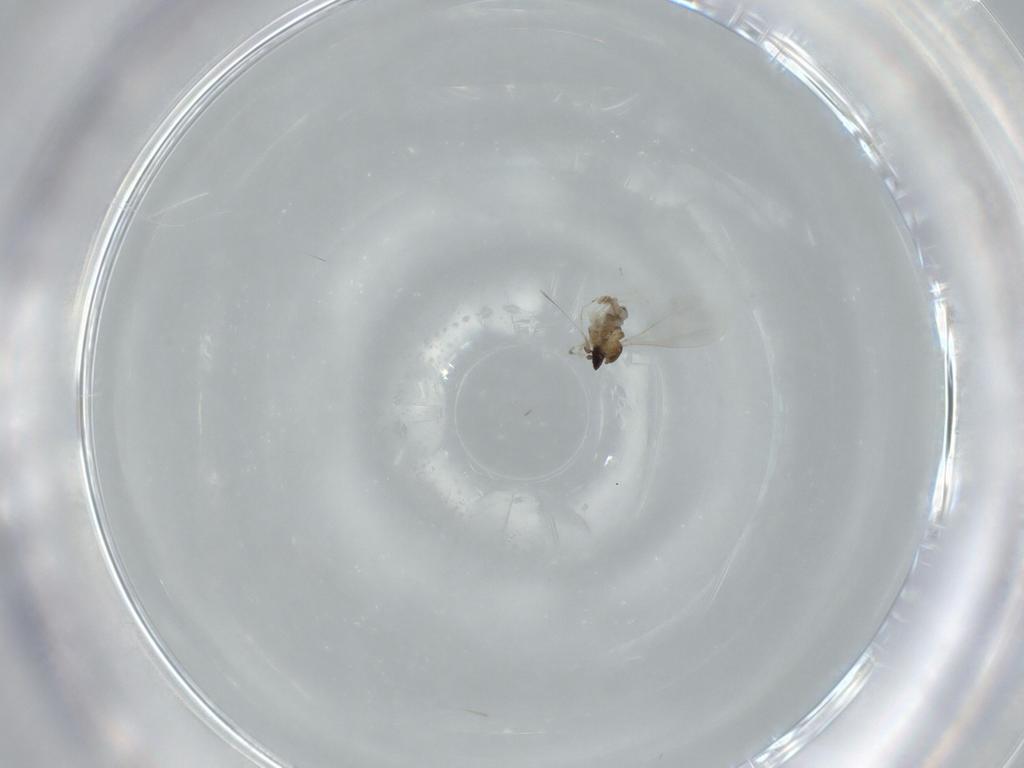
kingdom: Animalia
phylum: Arthropoda
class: Insecta
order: Diptera
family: Cecidomyiidae
